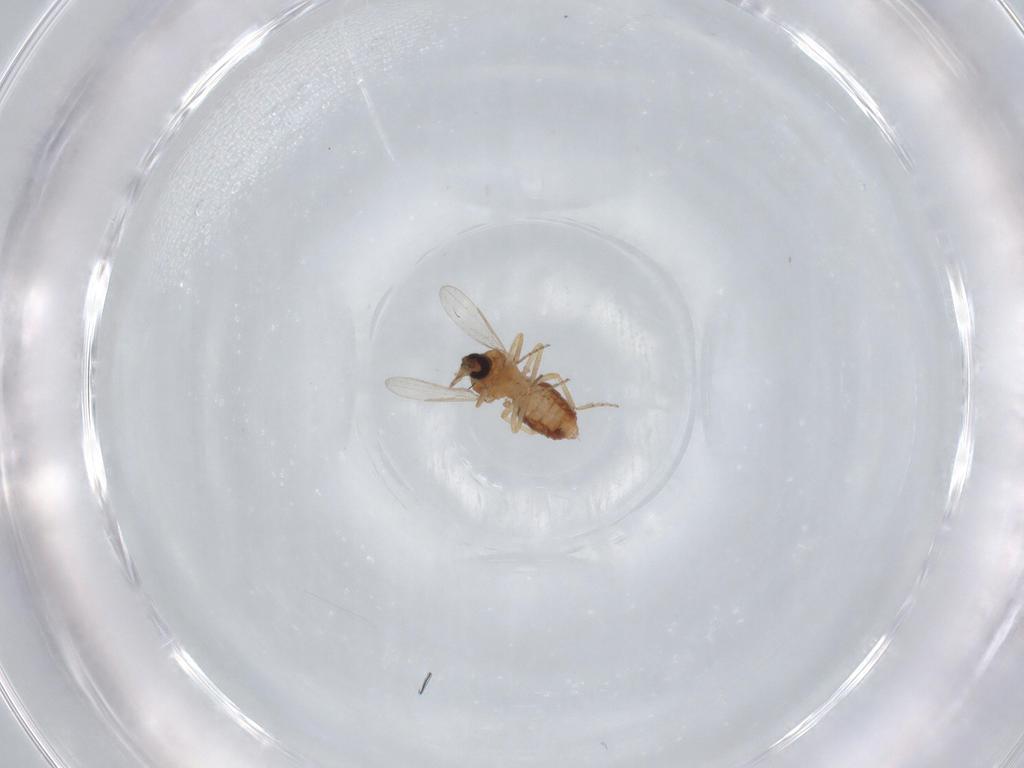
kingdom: Animalia
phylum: Arthropoda
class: Insecta
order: Diptera
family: Ceratopogonidae
